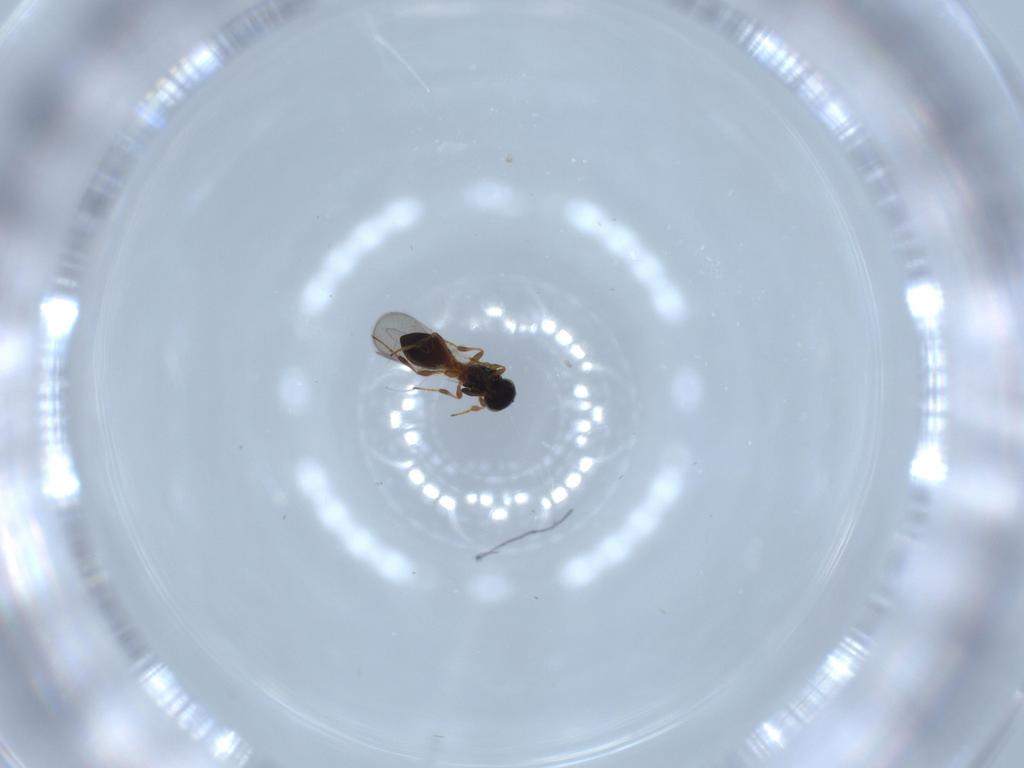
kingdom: Animalia
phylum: Arthropoda
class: Insecta
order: Hymenoptera
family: Platygastridae
